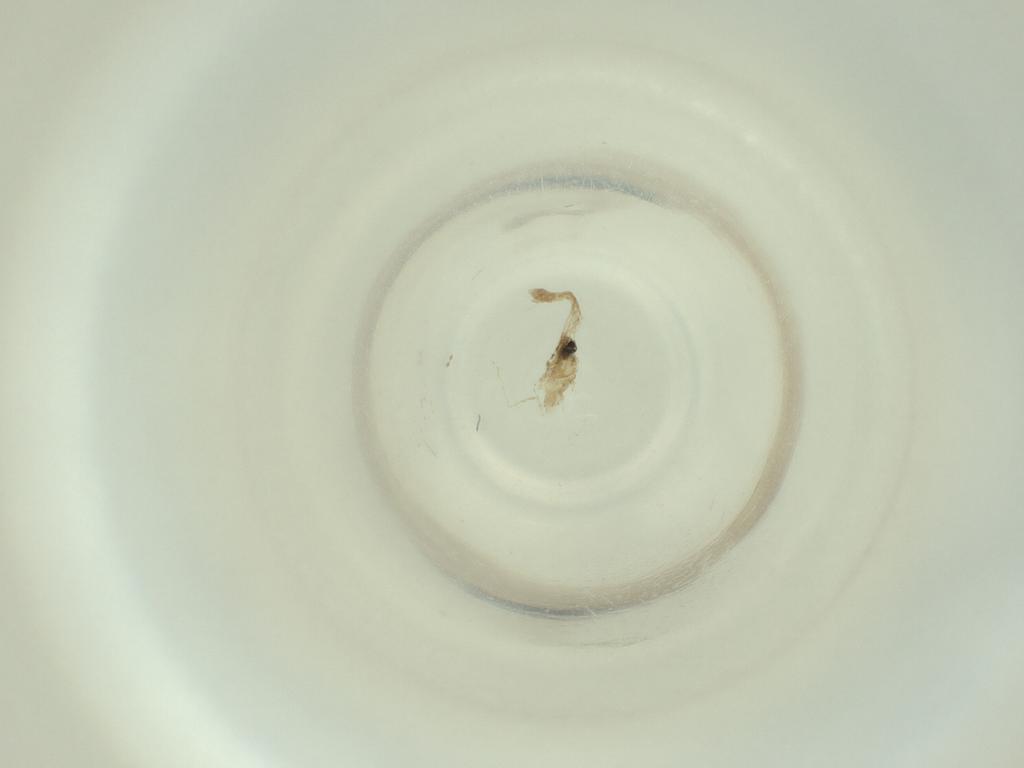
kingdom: Animalia
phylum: Arthropoda
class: Insecta
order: Diptera
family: Cecidomyiidae
